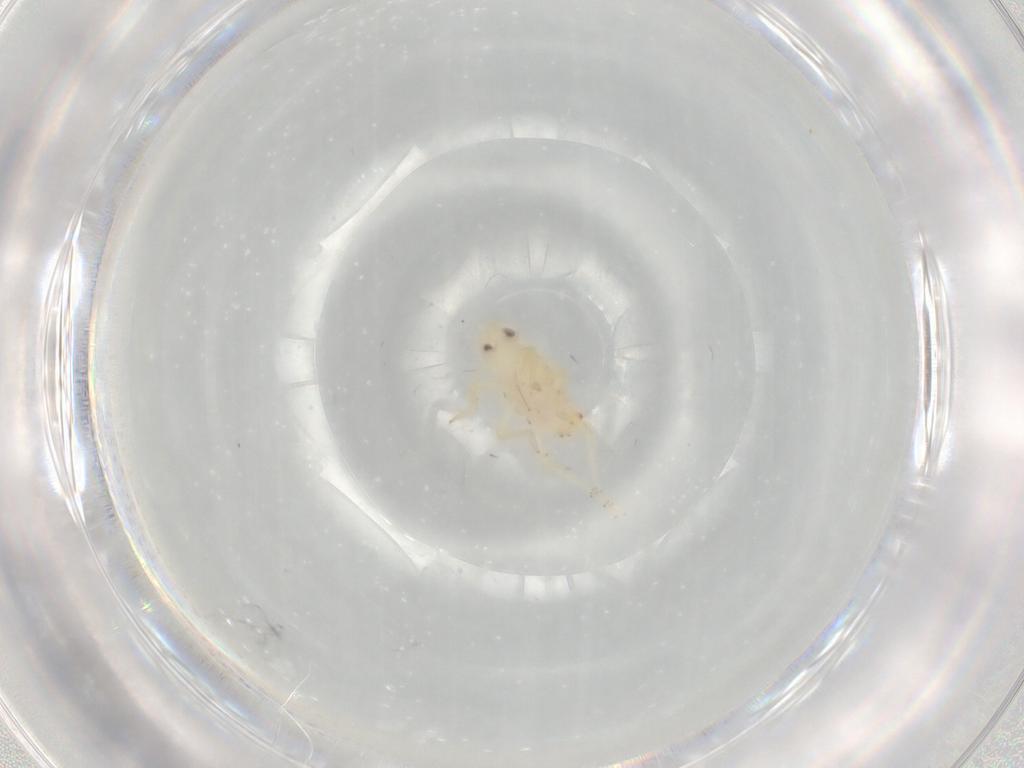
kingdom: Animalia
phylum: Arthropoda
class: Insecta
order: Hemiptera
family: Tropiduchidae
